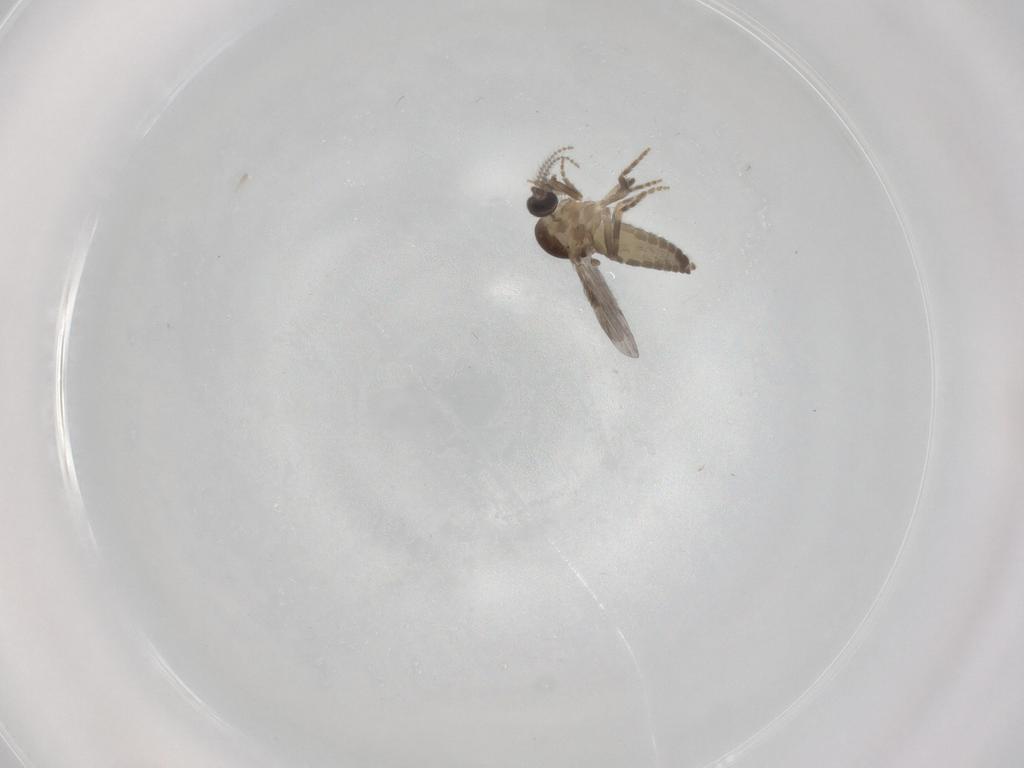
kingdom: Animalia
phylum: Arthropoda
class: Insecta
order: Diptera
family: Ceratopogonidae
